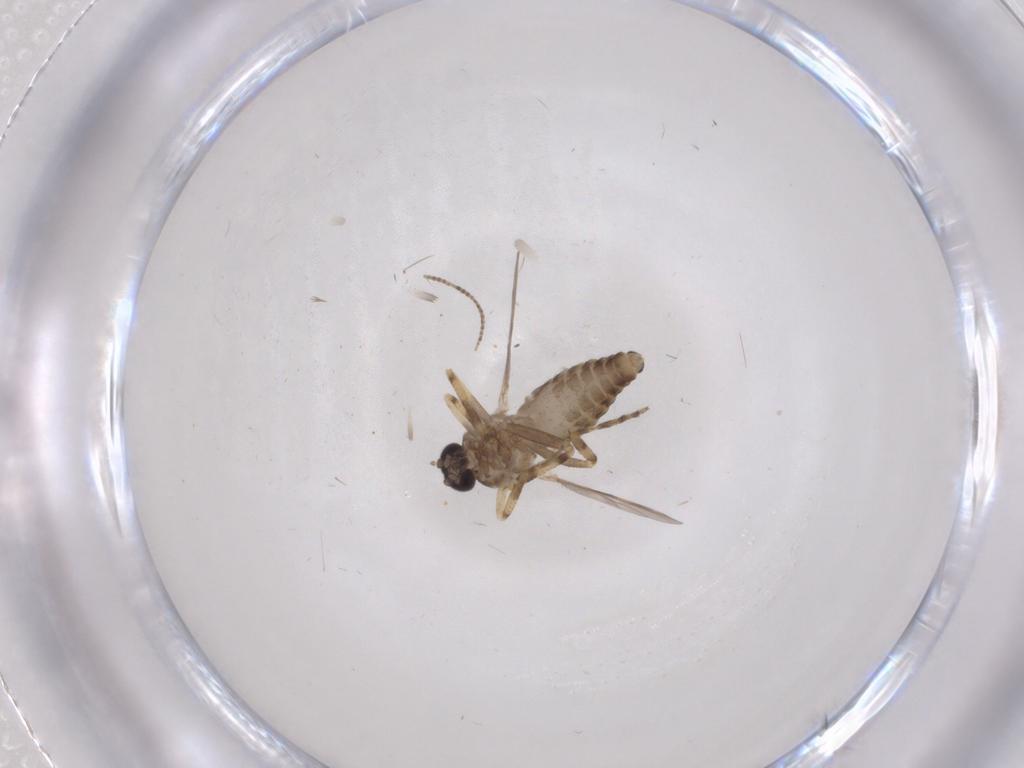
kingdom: Animalia
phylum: Arthropoda
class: Insecta
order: Diptera
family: Ceratopogonidae
